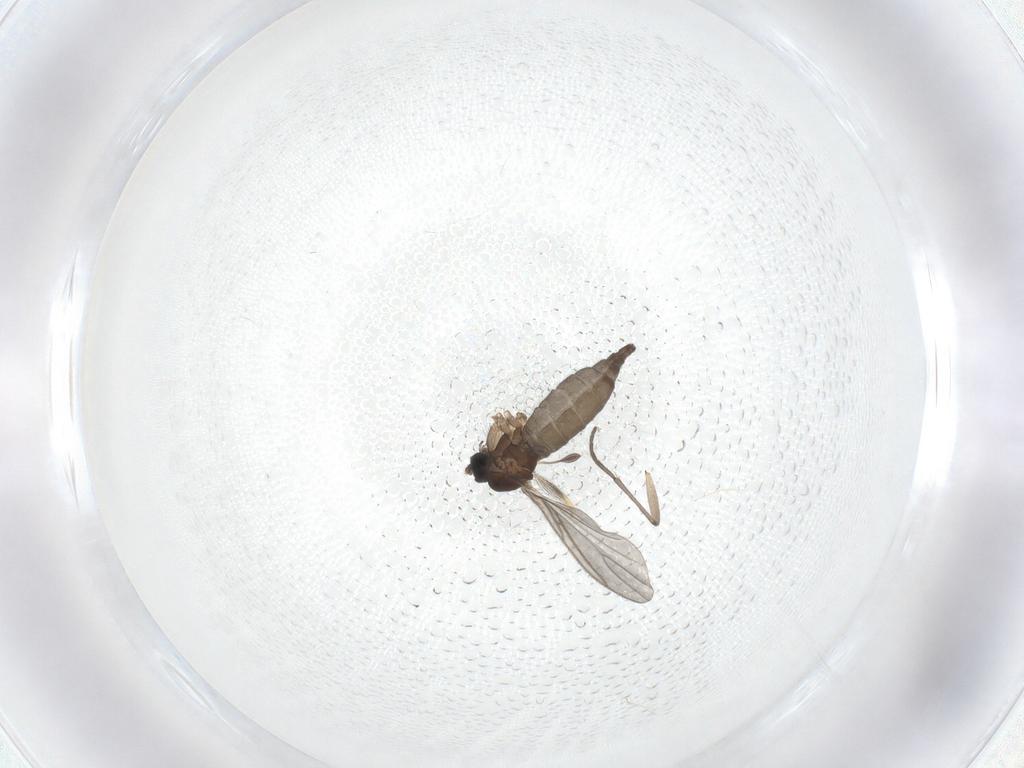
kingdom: Animalia
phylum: Arthropoda
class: Insecta
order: Diptera
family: Sciaridae
